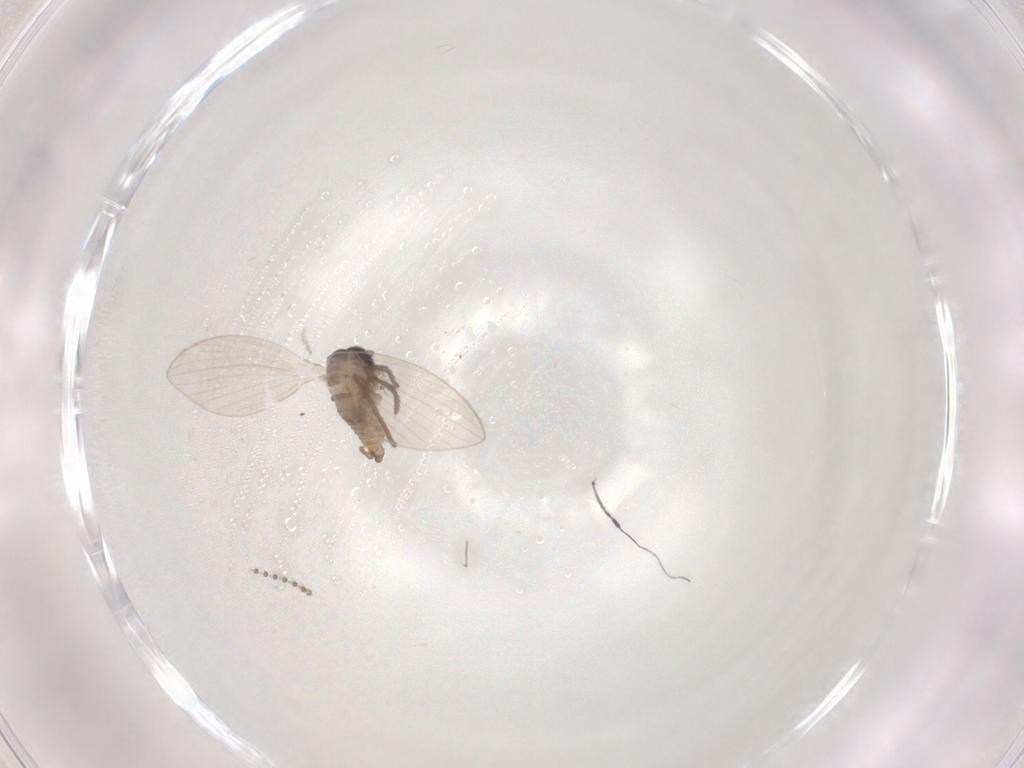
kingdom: Animalia
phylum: Arthropoda
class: Insecta
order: Diptera
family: Psychodidae
